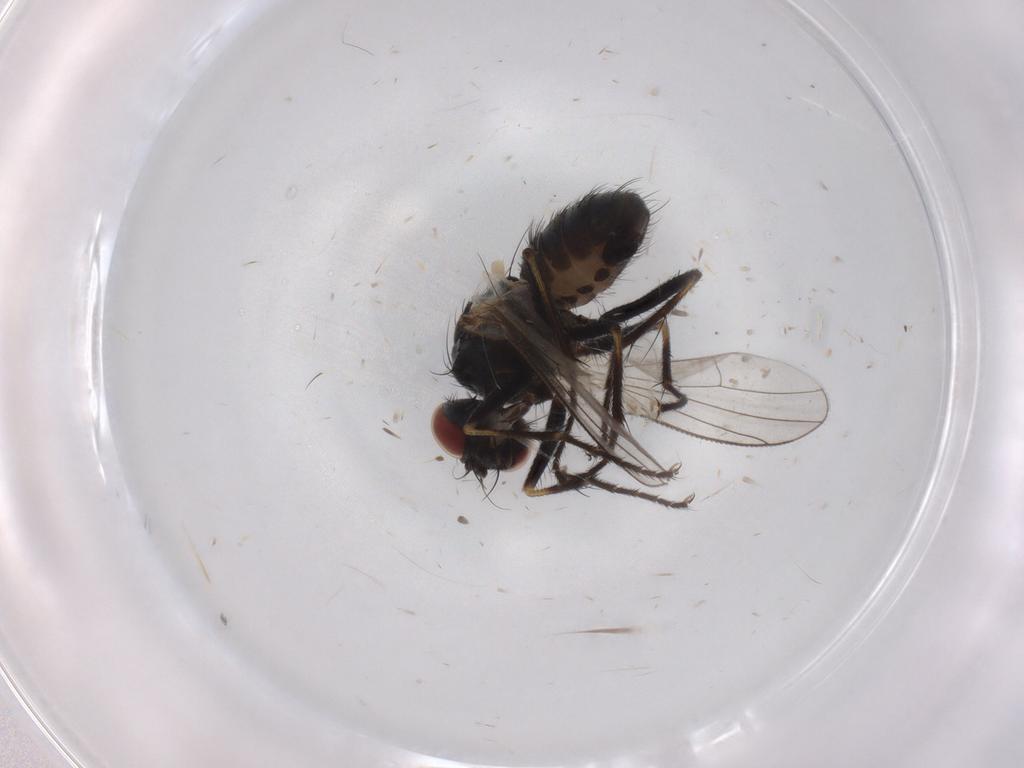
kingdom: Animalia
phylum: Arthropoda
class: Insecta
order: Diptera
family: Muscidae
